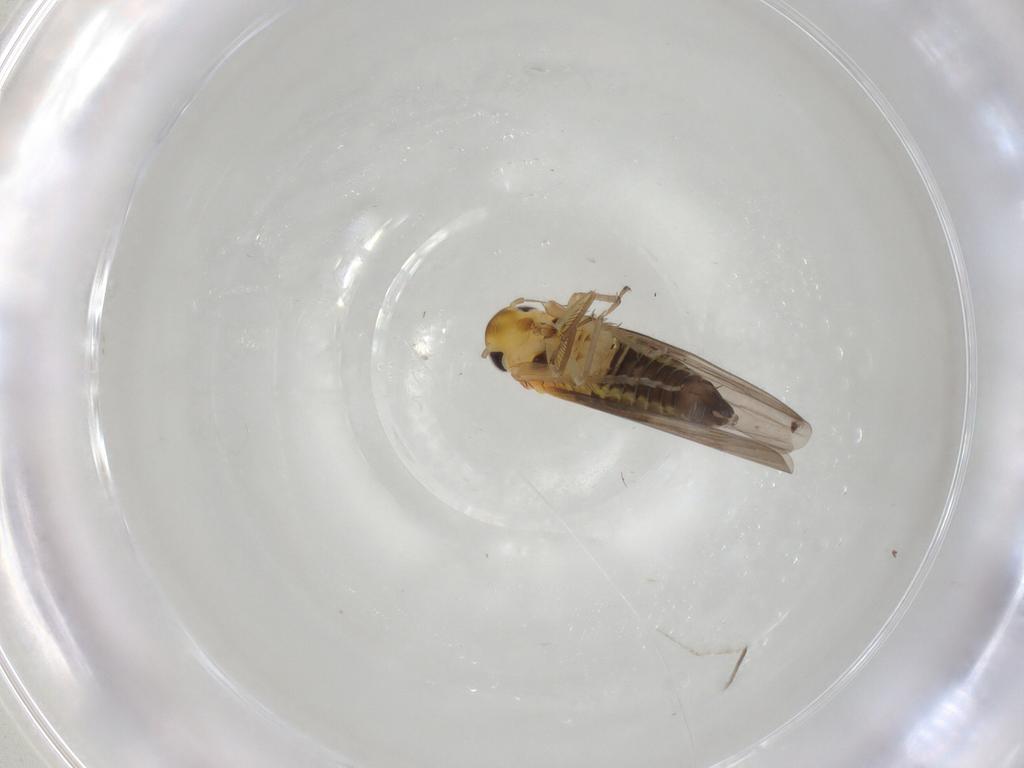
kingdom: Animalia
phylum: Arthropoda
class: Insecta
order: Hemiptera
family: Cicadellidae
